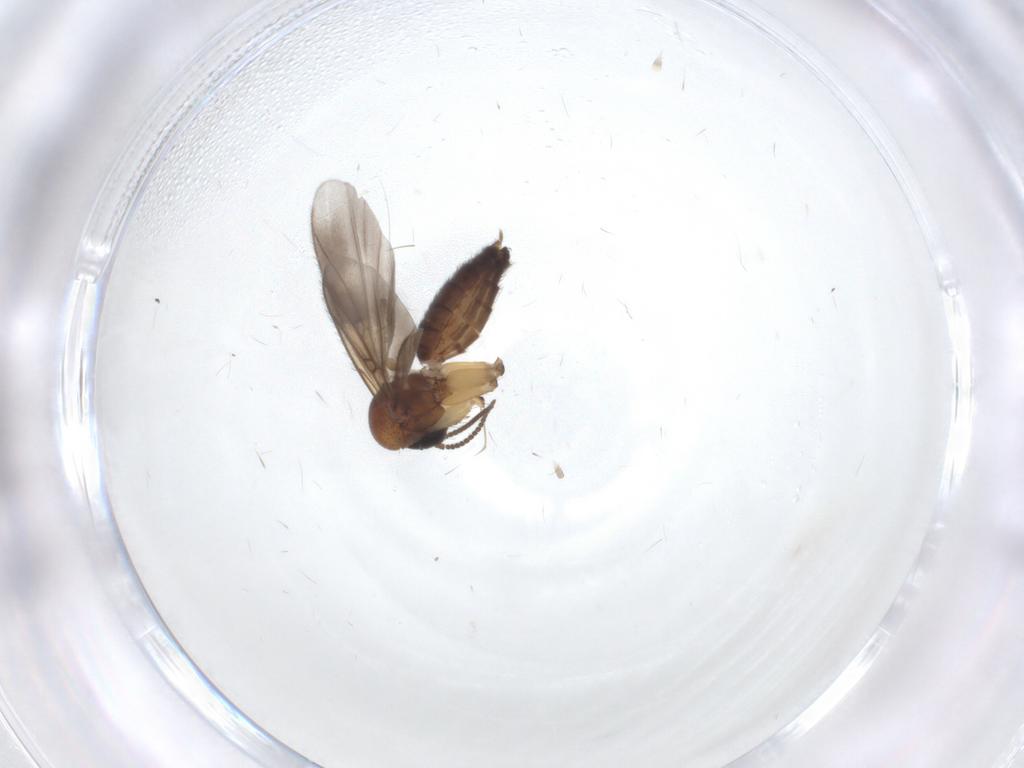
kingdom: Animalia
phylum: Arthropoda
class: Insecta
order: Diptera
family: Mycetophilidae
